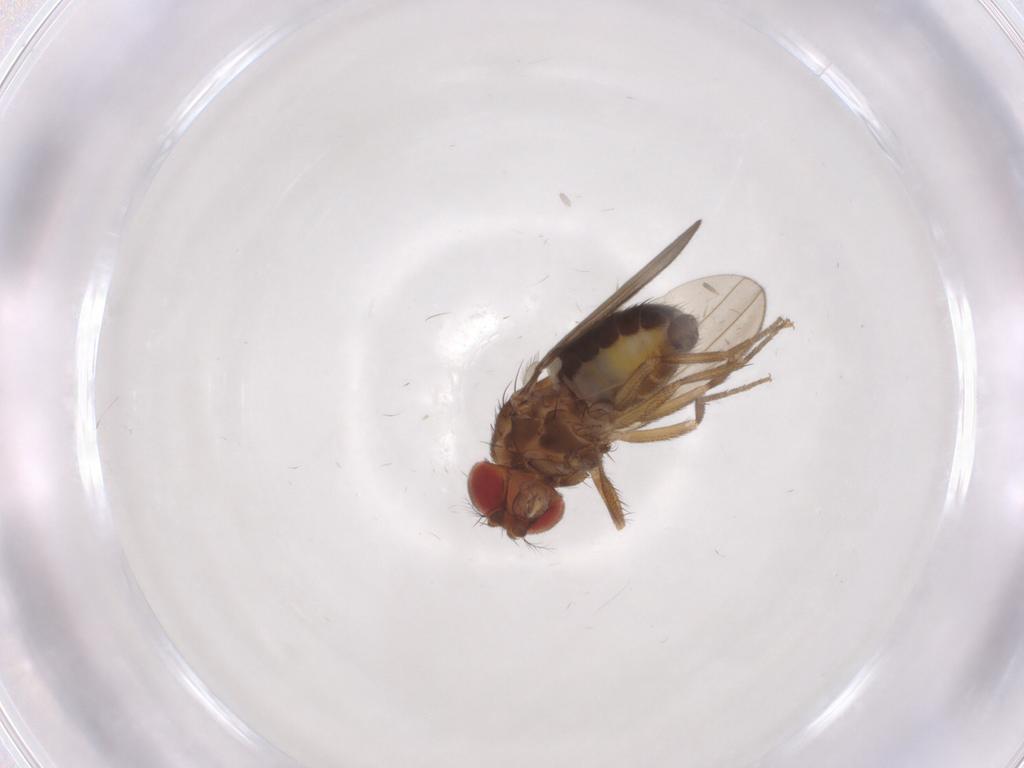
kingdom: Animalia
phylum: Arthropoda
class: Insecta
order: Diptera
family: Drosophilidae
